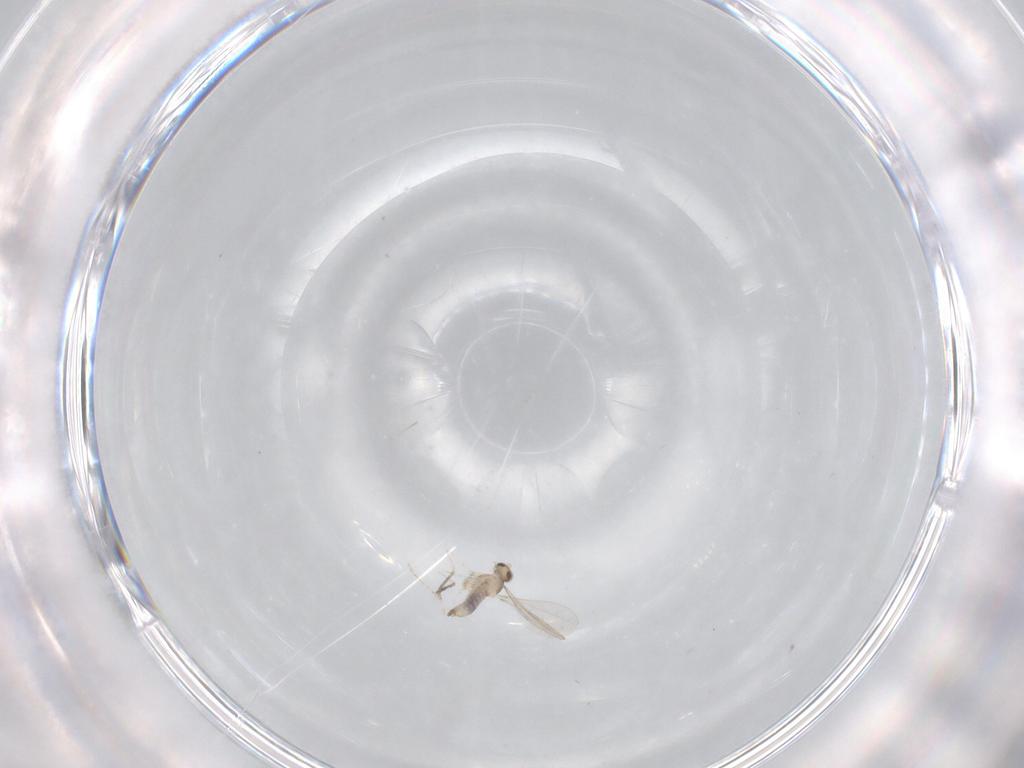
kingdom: Animalia
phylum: Arthropoda
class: Insecta
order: Diptera
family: Cecidomyiidae
